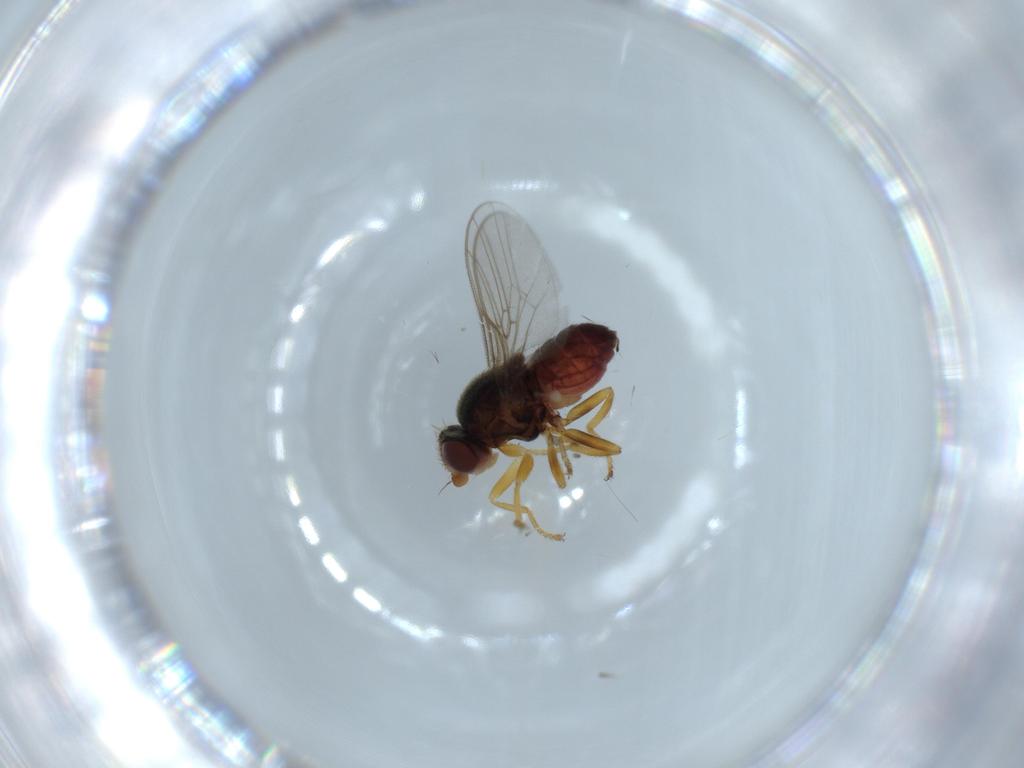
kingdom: Animalia
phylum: Arthropoda
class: Insecta
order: Diptera
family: Chloropidae
